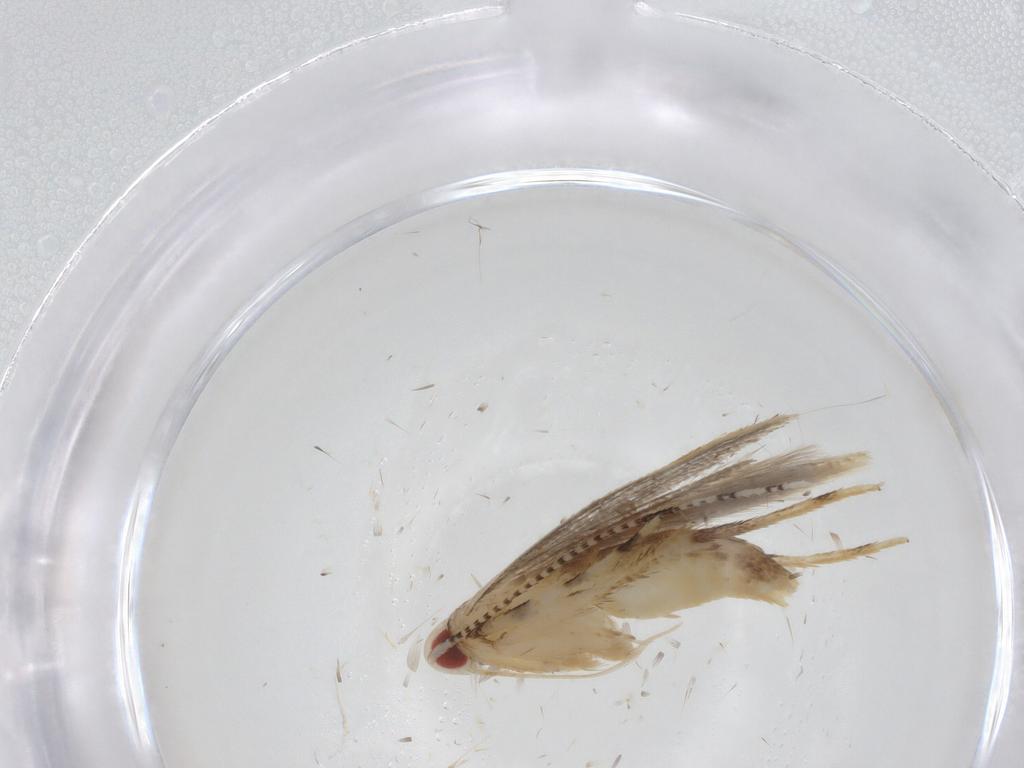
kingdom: Animalia
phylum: Arthropoda
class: Insecta
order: Lepidoptera
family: Cosmopterigidae
